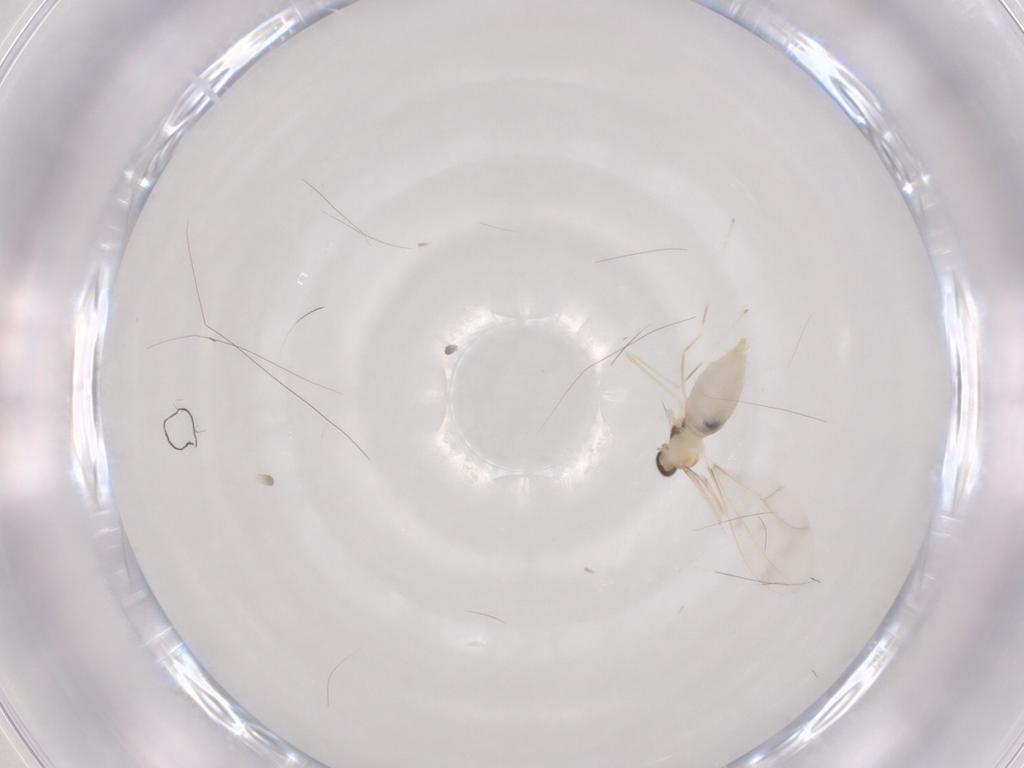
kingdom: Animalia
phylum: Arthropoda
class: Insecta
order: Diptera
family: Cecidomyiidae
